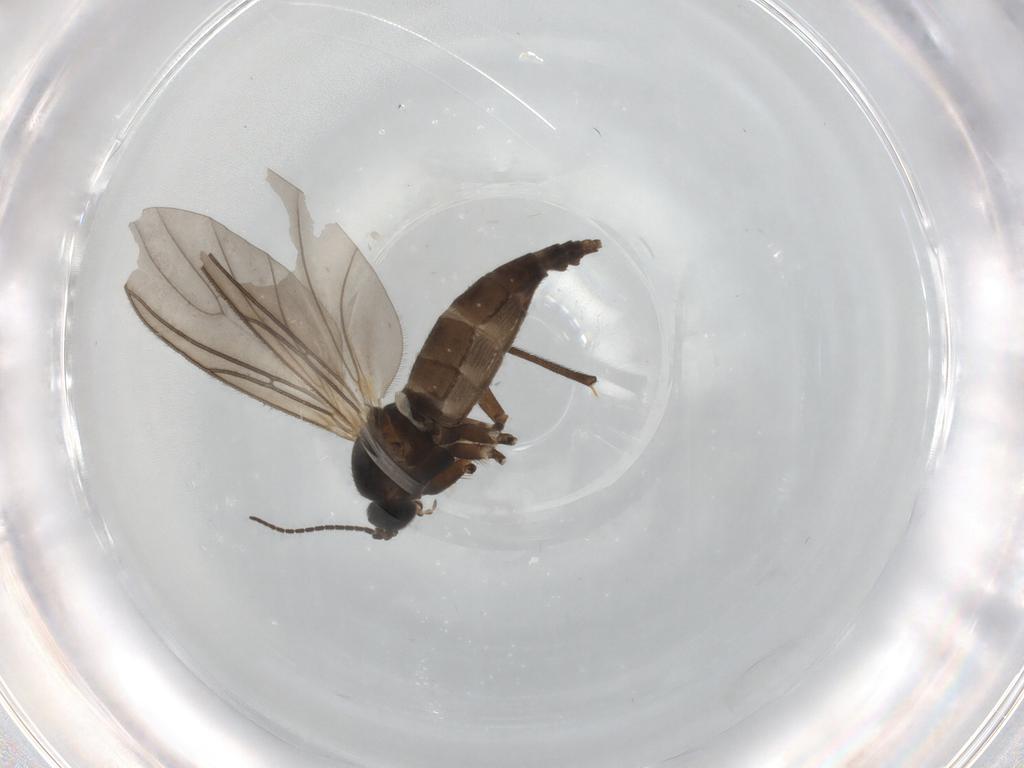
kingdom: Animalia
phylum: Arthropoda
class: Insecta
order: Diptera
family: Sciaridae
